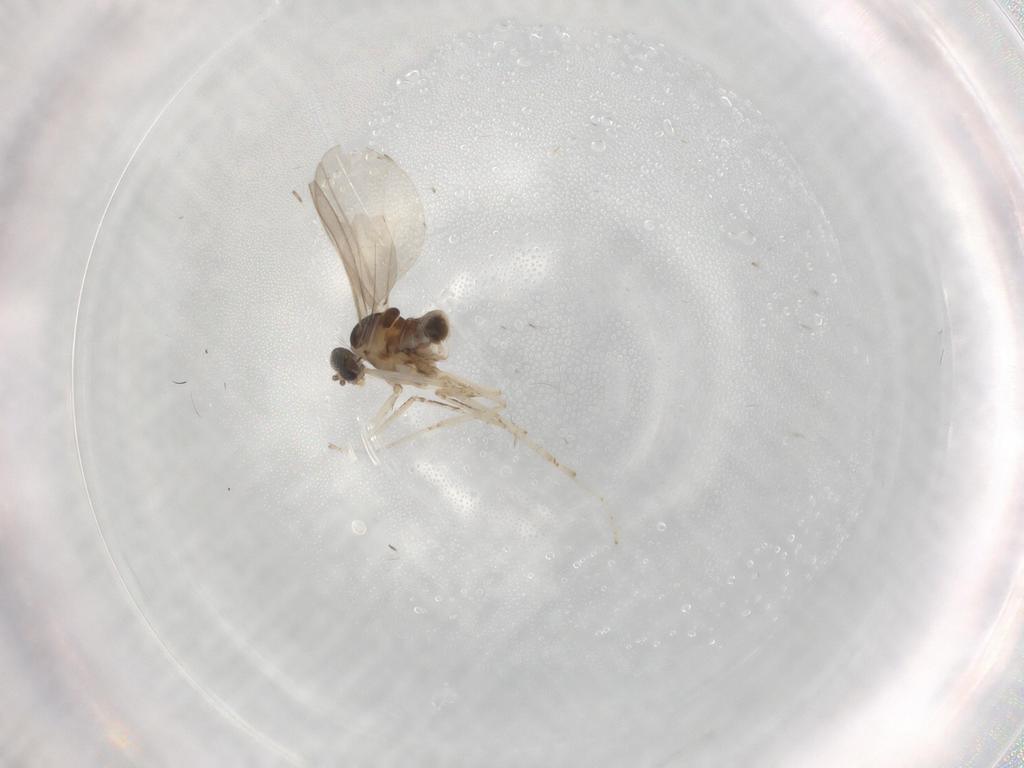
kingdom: Animalia
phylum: Arthropoda
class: Insecta
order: Diptera
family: Cecidomyiidae
